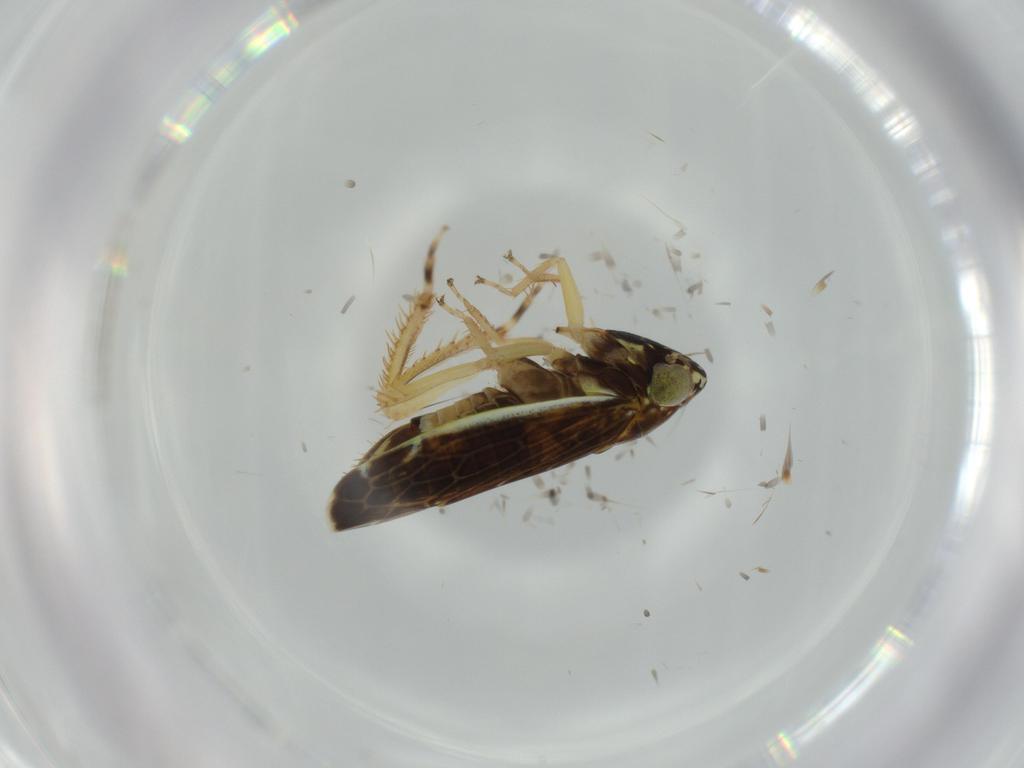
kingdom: Animalia
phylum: Arthropoda
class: Insecta
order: Hemiptera
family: Cicadellidae
